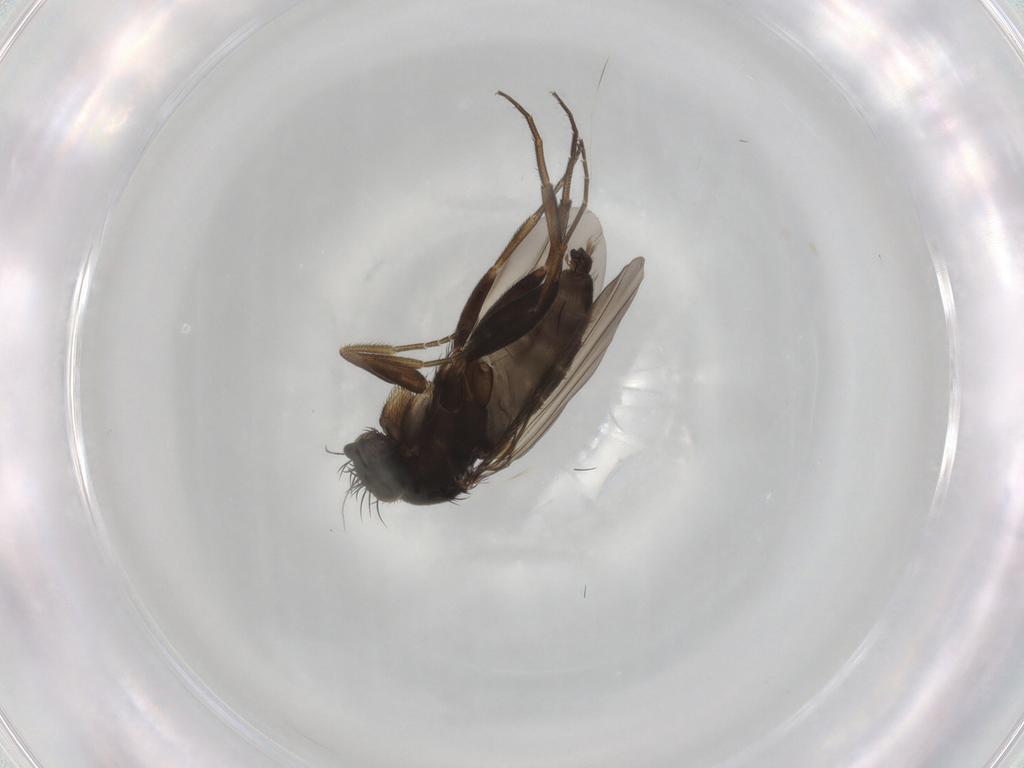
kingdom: Animalia
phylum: Arthropoda
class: Insecta
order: Diptera
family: Phoridae
